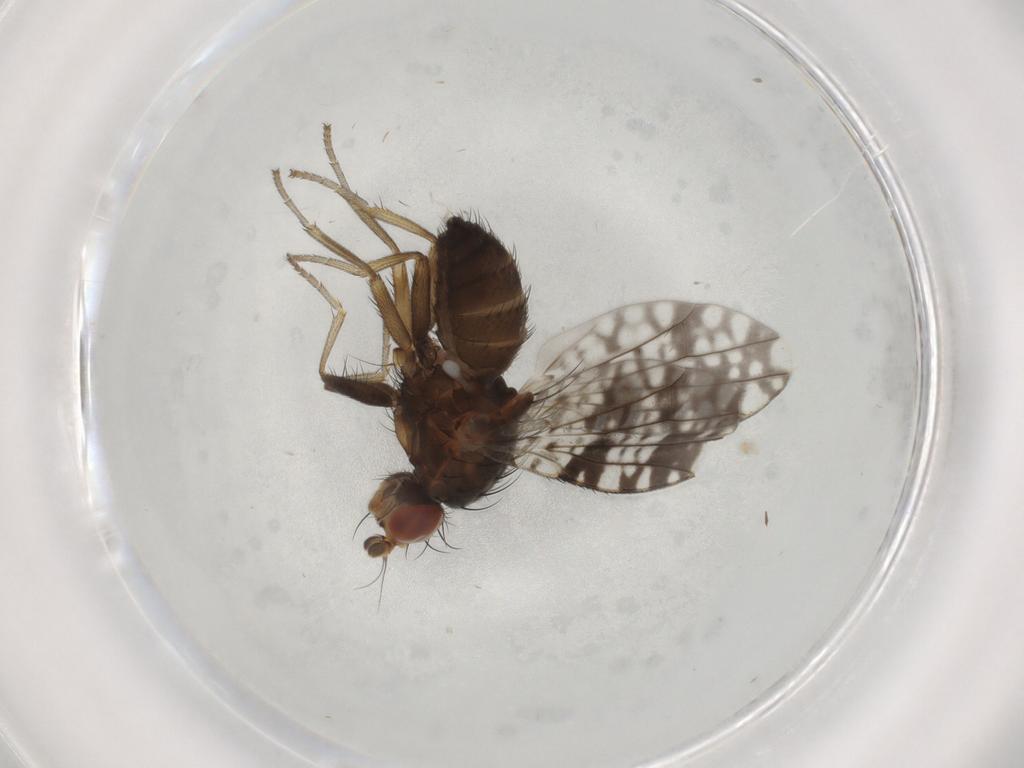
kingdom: Animalia
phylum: Arthropoda
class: Insecta
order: Diptera
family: Tephritidae
